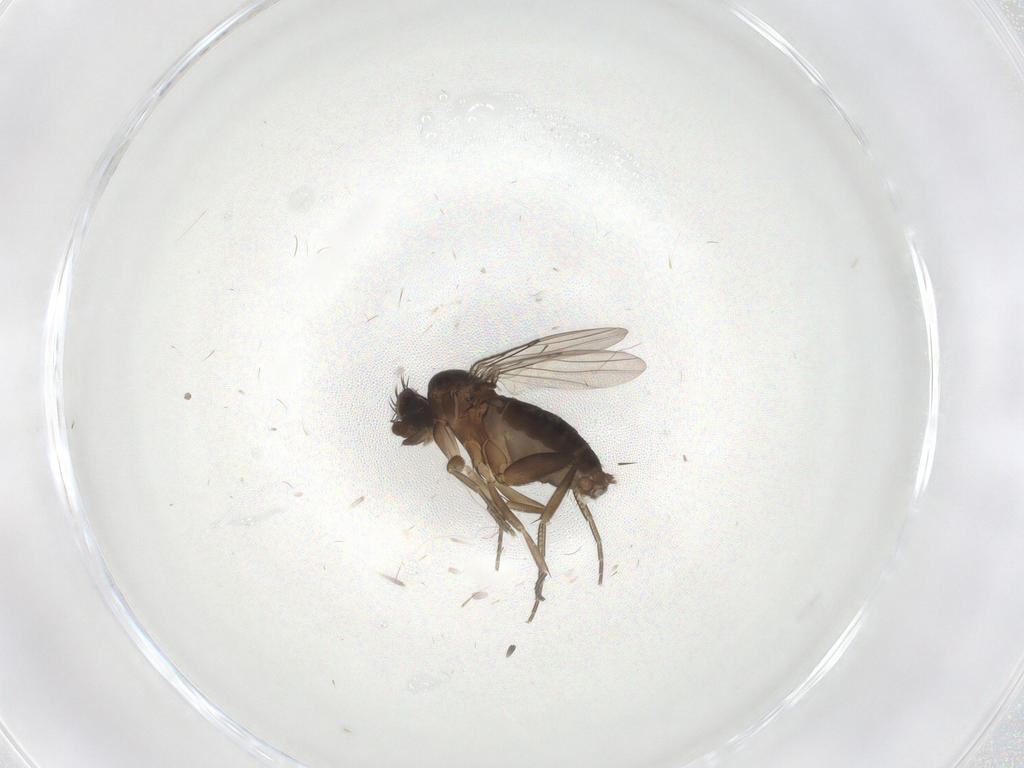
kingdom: Animalia
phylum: Arthropoda
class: Insecta
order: Diptera
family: Phoridae
